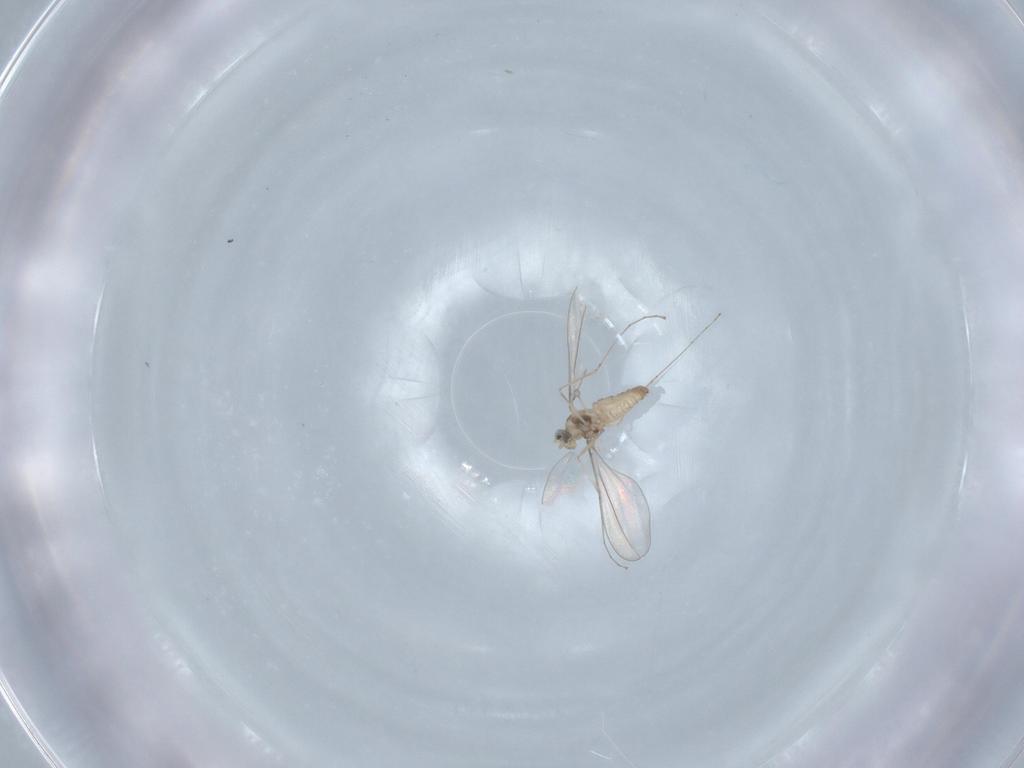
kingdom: Animalia
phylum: Arthropoda
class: Insecta
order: Diptera
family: Cecidomyiidae
